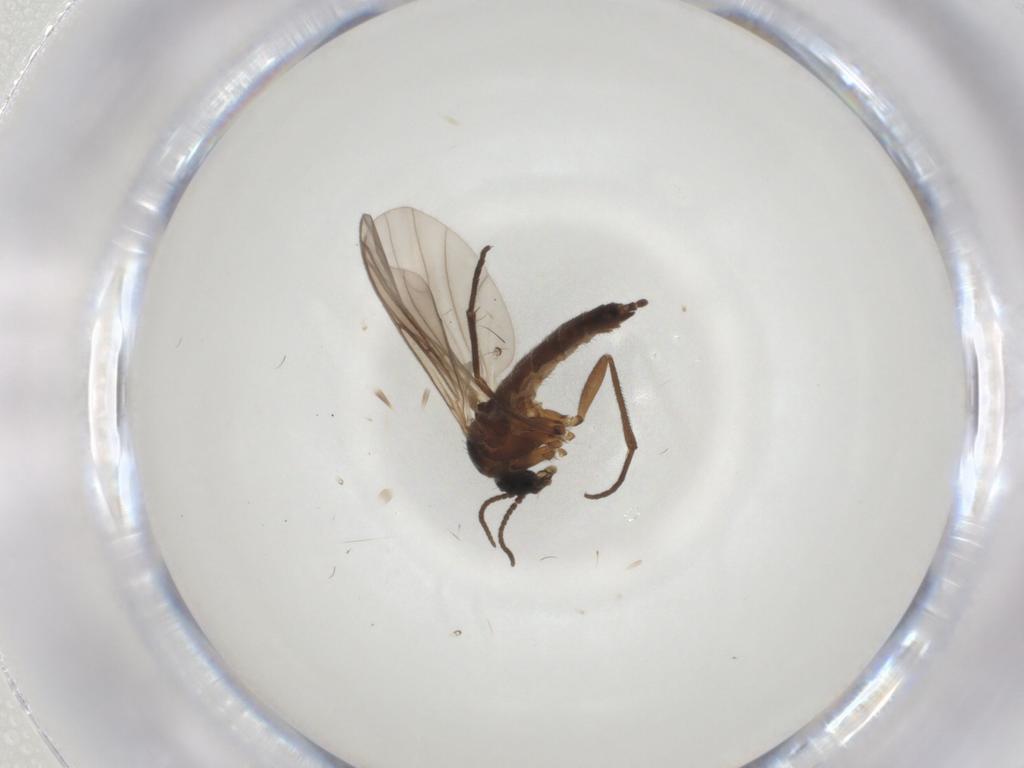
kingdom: Animalia
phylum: Arthropoda
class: Insecta
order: Diptera
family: Sciaridae
